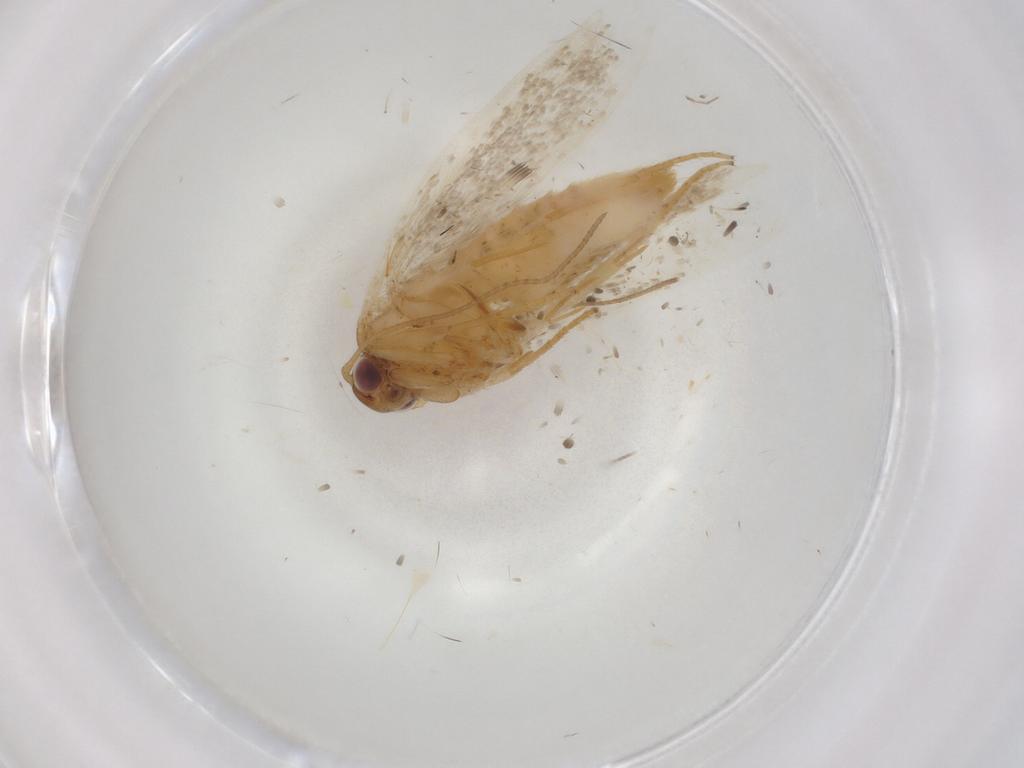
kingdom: Animalia
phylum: Arthropoda
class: Insecta
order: Lepidoptera
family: Gelechiidae
